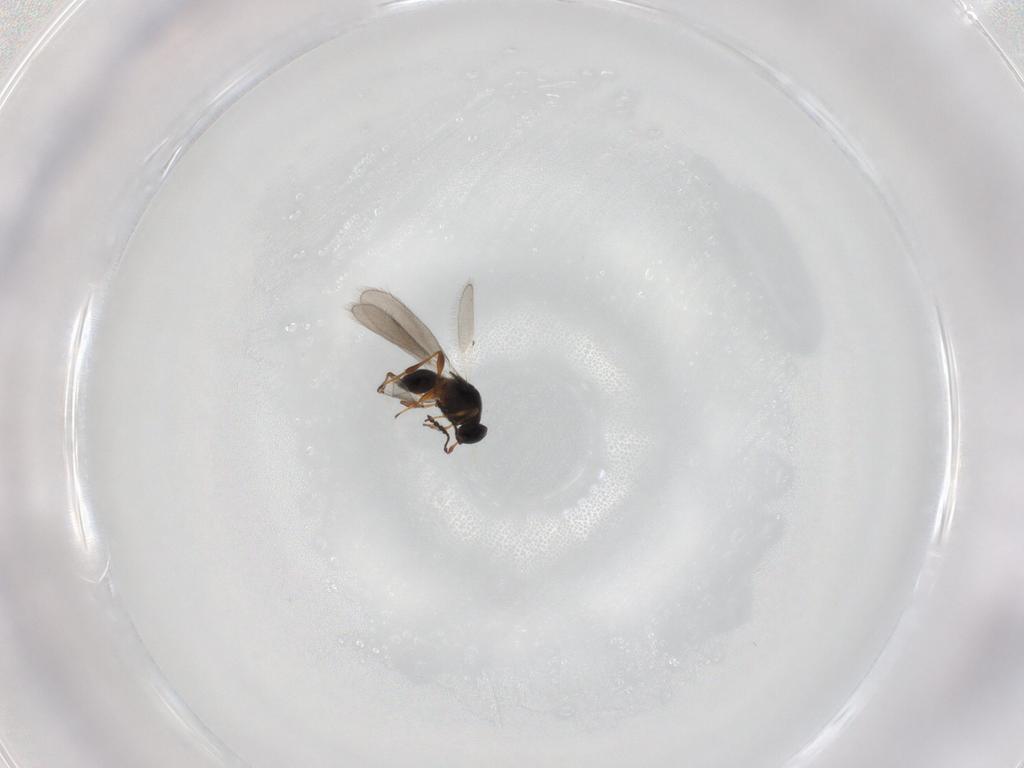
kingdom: Animalia
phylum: Arthropoda
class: Insecta
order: Hymenoptera
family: Platygastridae
